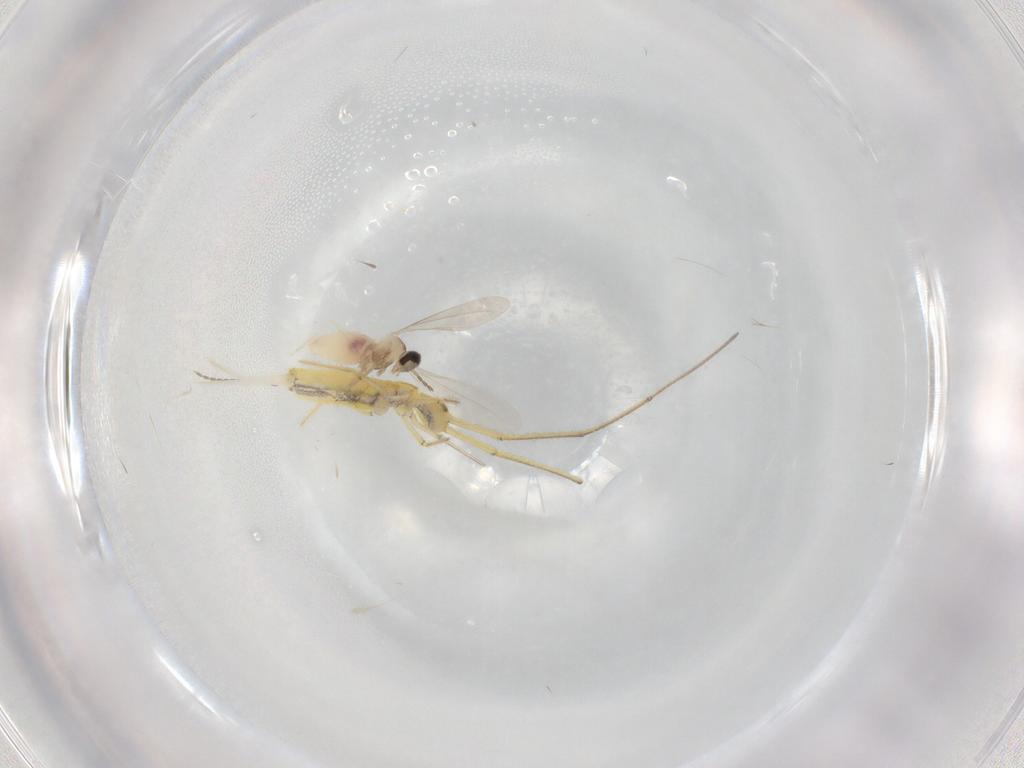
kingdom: Animalia
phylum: Arthropoda
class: Insecta
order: Diptera
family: Cecidomyiidae
